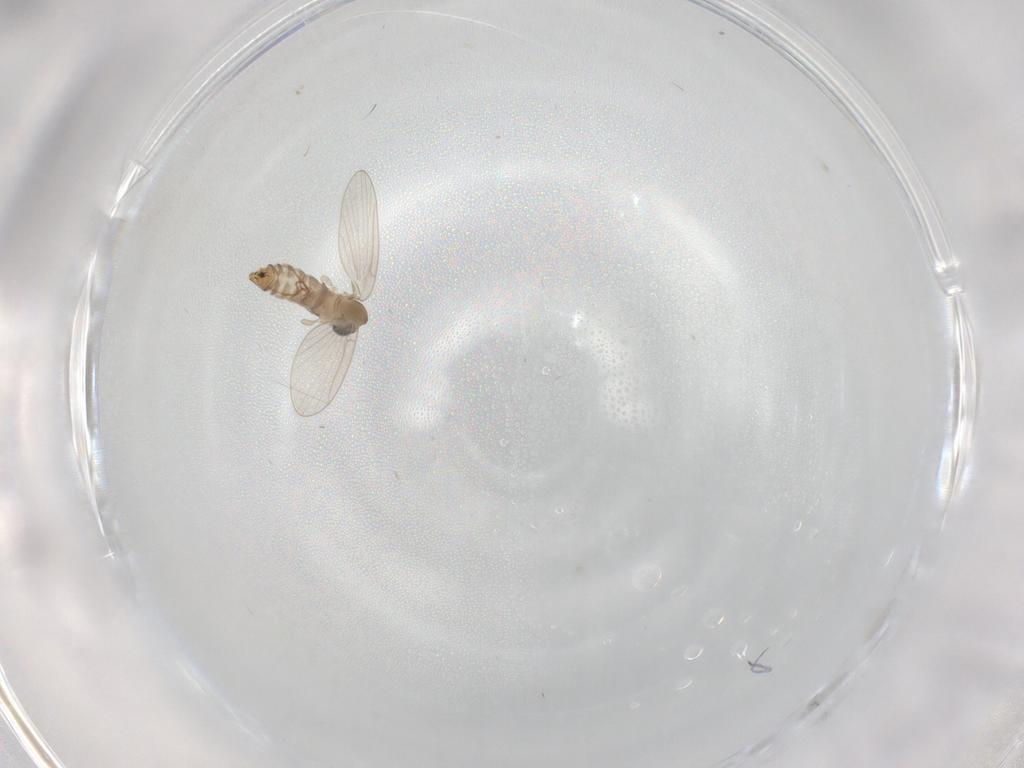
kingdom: Animalia
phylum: Arthropoda
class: Insecta
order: Diptera
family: Psychodidae
